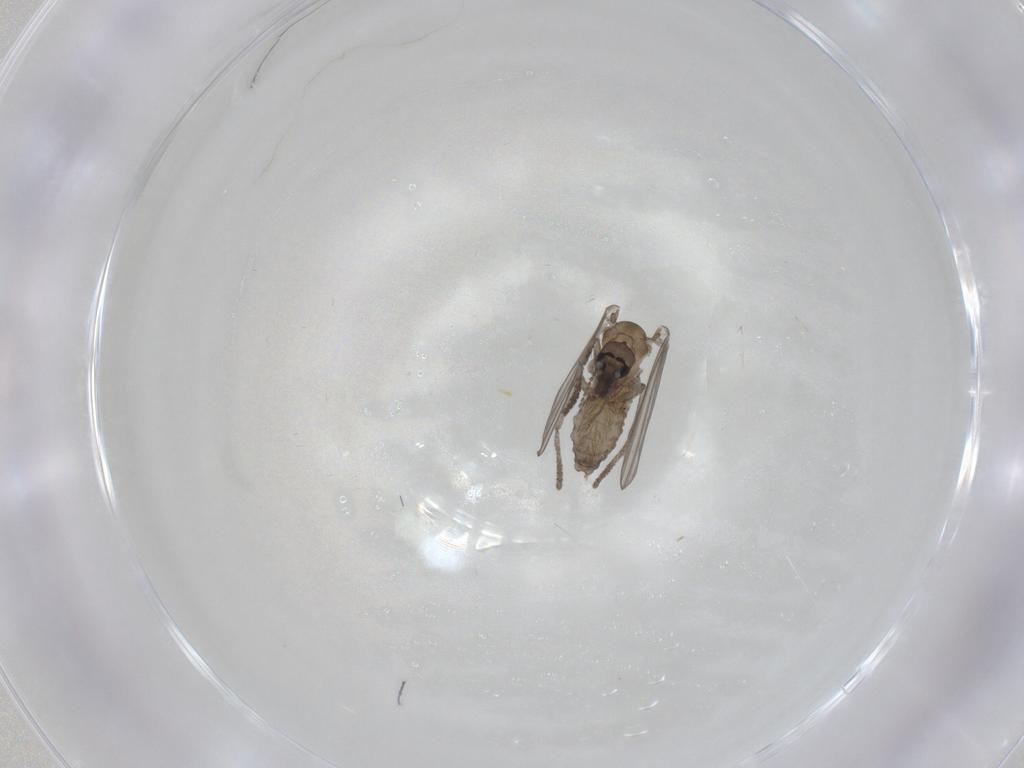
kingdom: Animalia
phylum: Arthropoda
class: Insecta
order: Diptera
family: Psychodidae
